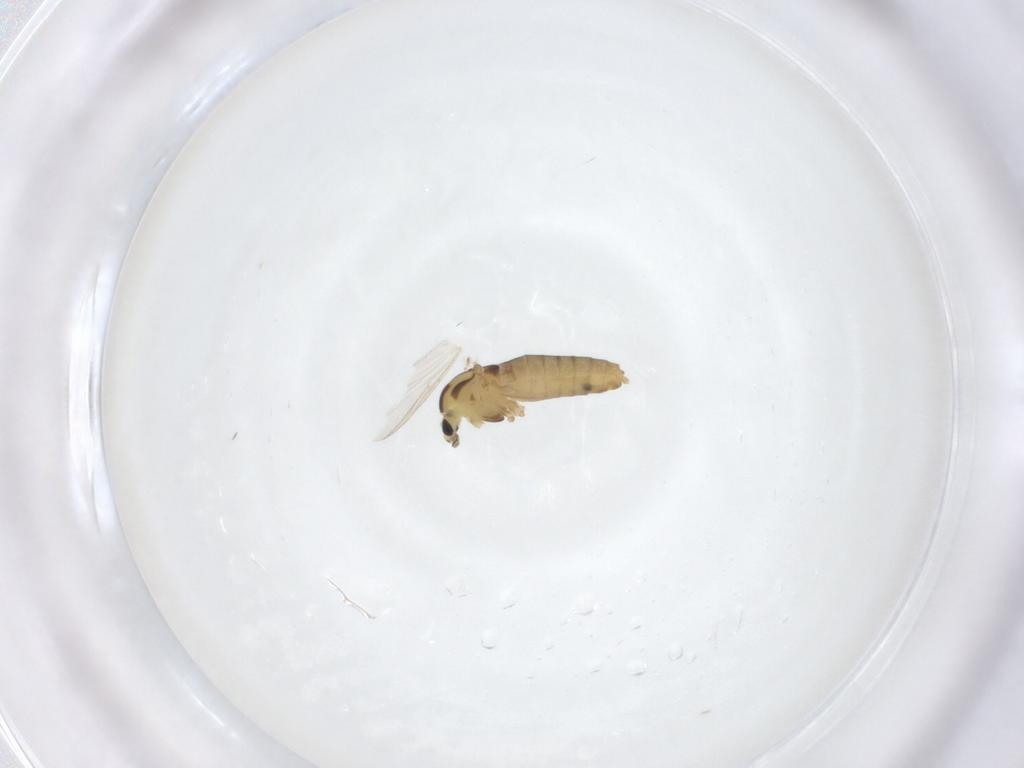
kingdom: Animalia
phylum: Arthropoda
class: Insecta
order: Diptera
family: Chironomidae
